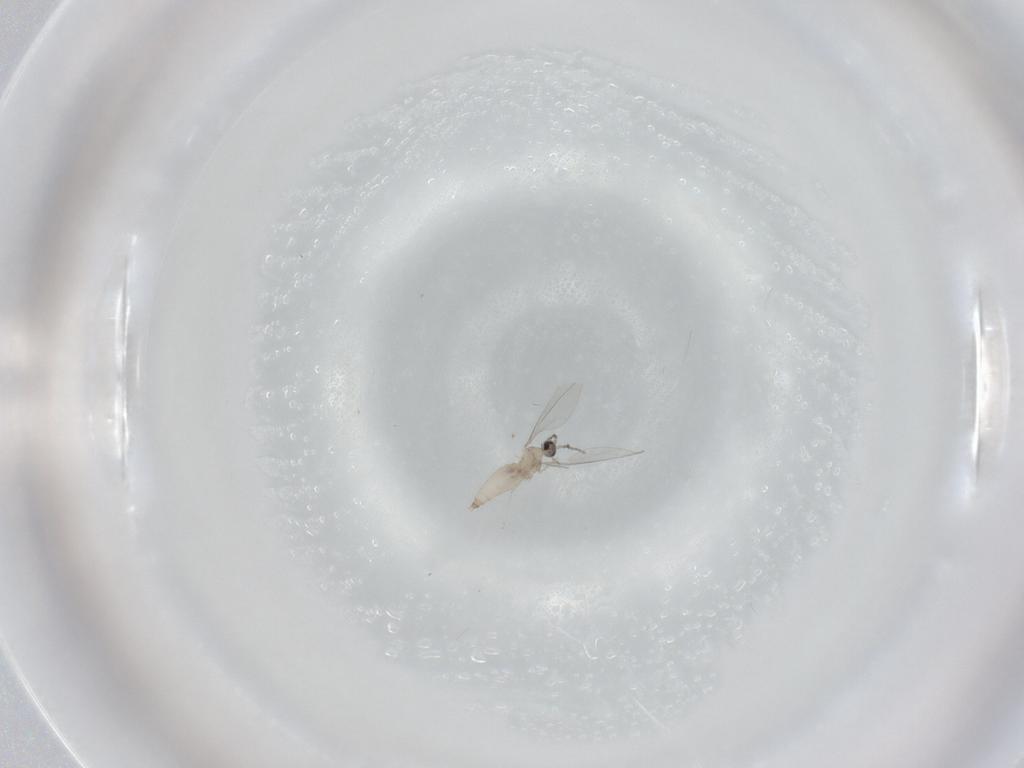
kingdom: Animalia
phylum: Arthropoda
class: Insecta
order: Diptera
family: Cecidomyiidae
